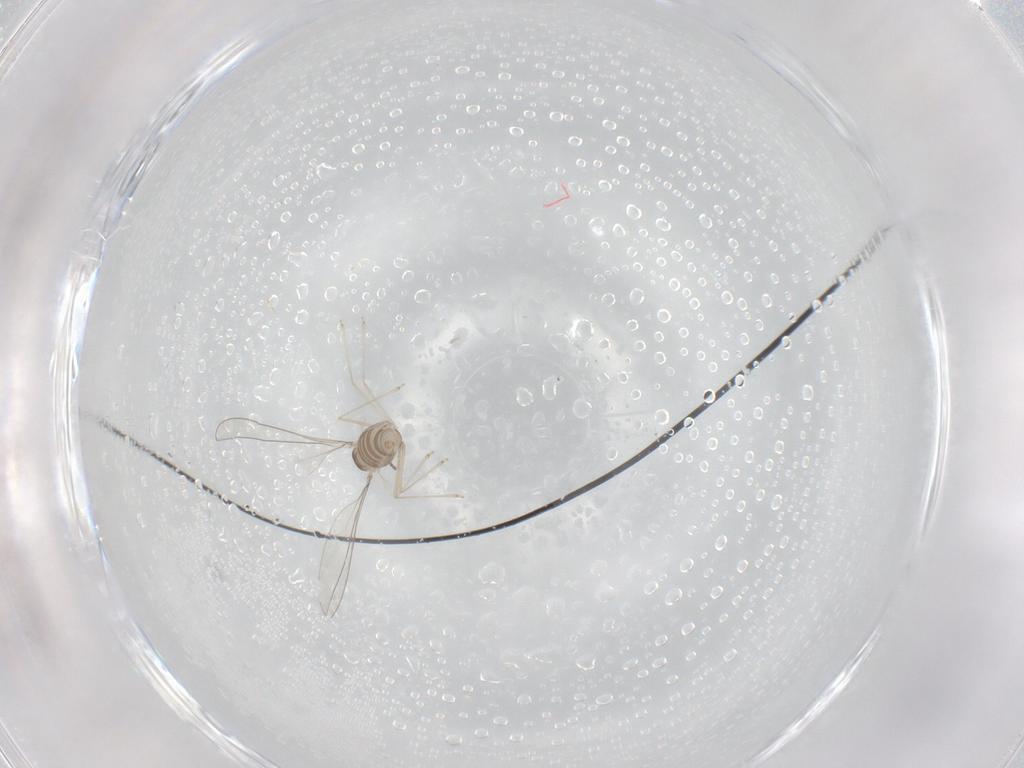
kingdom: Animalia
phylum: Arthropoda
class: Insecta
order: Diptera
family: Limoniidae
